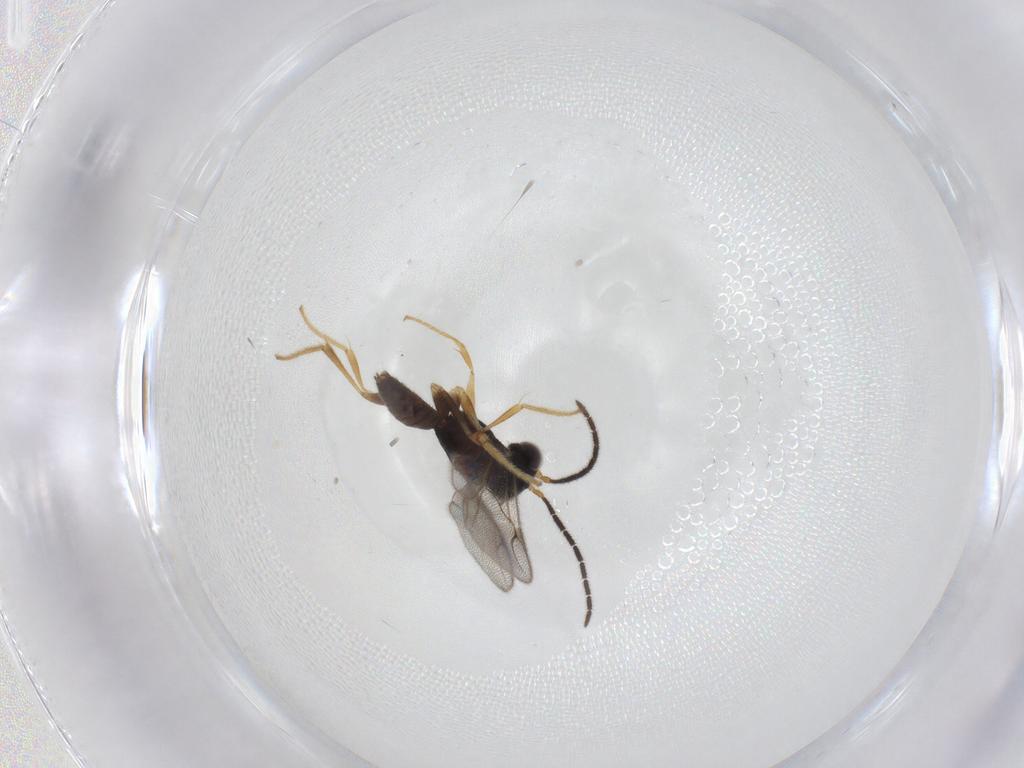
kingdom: Animalia
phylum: Arthropoda
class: Insecta
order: Hymenoptera
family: Dryinidae
